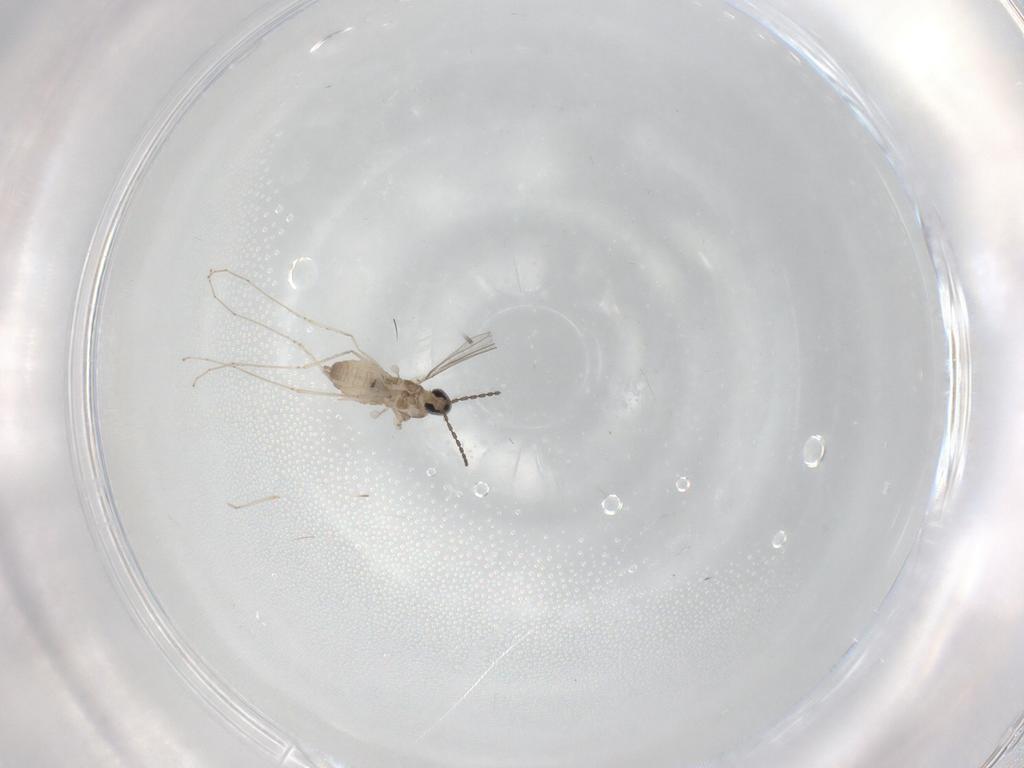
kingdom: Animalia
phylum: Arthropoda
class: Insecta
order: Diptera
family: Cecidomyiidae
